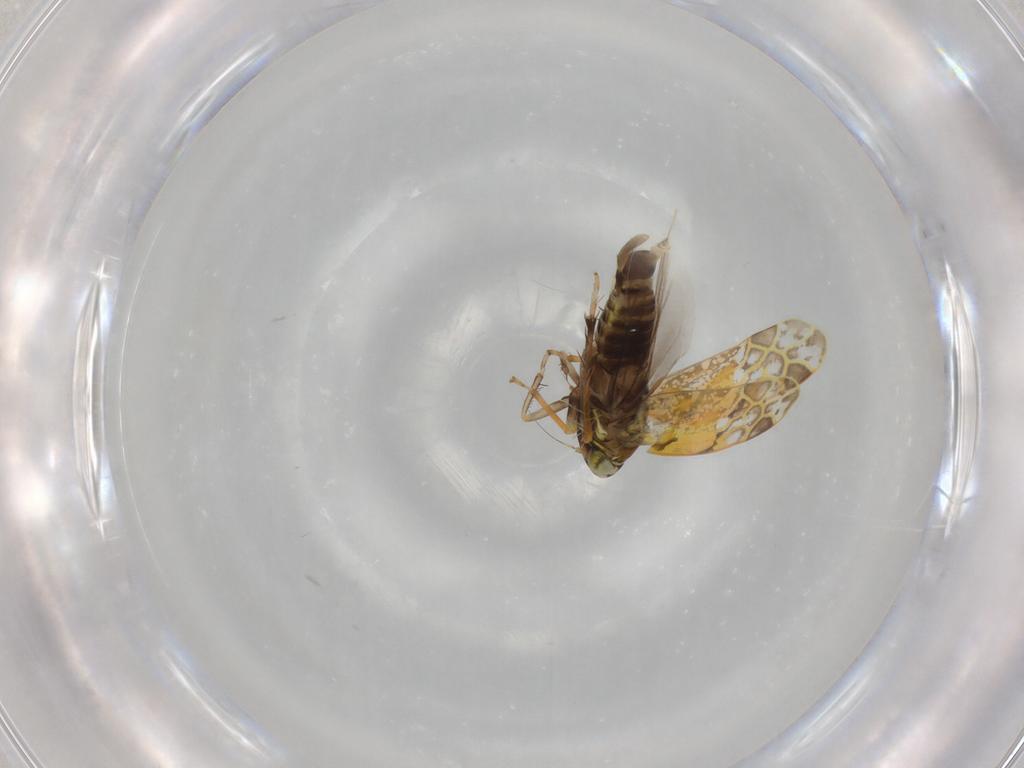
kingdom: Animalia
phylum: Arthropoda
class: Insecta
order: Hemiptera
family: Cicadellidae
